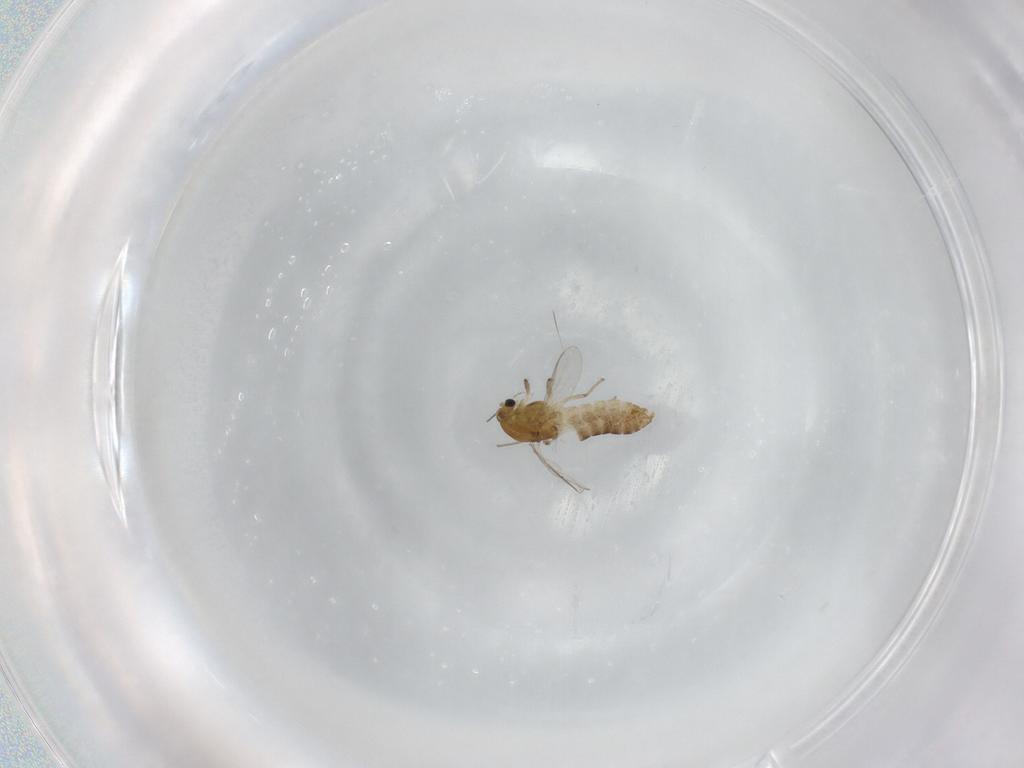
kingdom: Animalia
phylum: Arthropoda
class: Insecta
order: Diptera
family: Chironomidae
